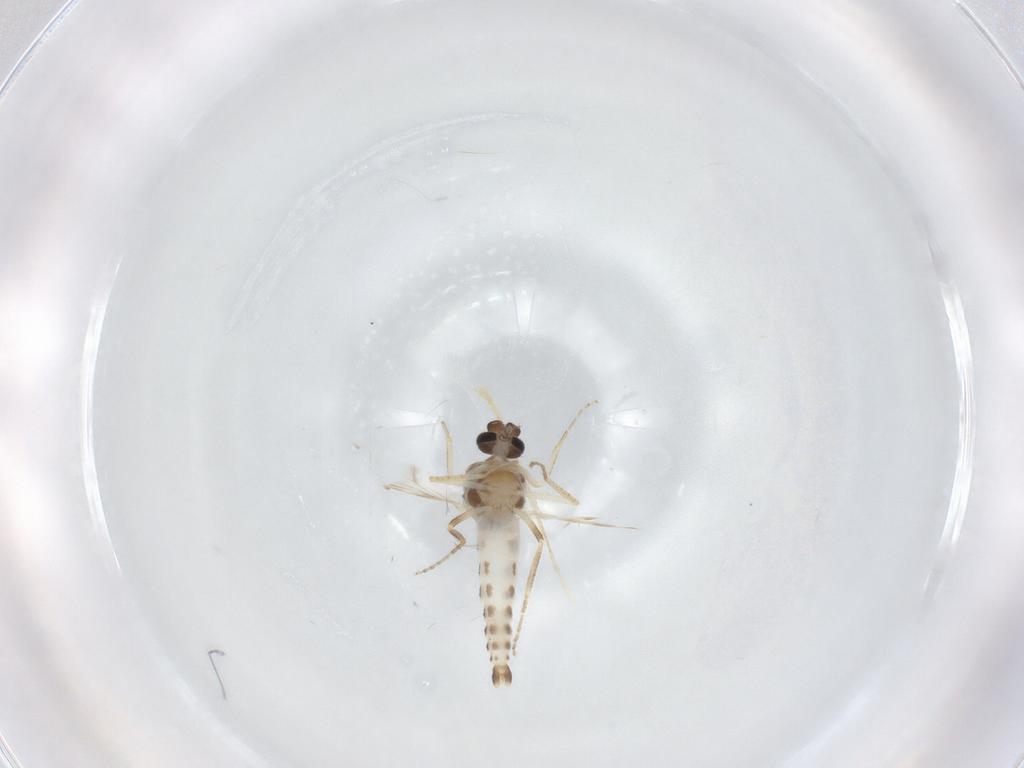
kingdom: Animalia
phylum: Arthropoda
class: Insecta
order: Diptera
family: Ceratopogonidae
